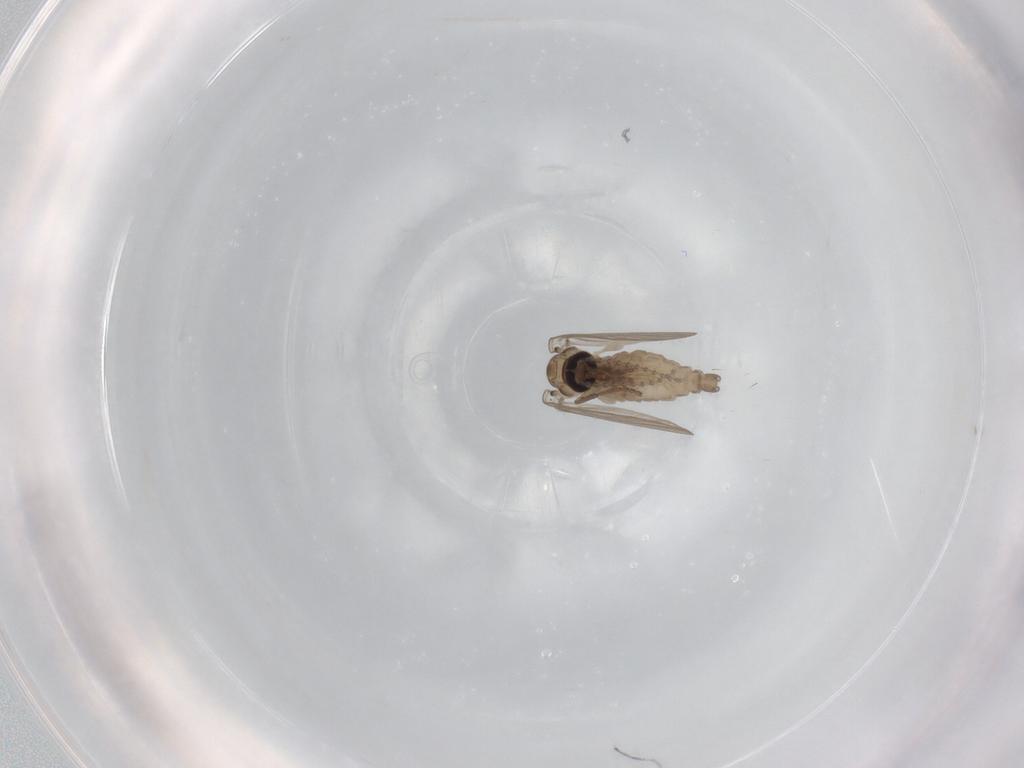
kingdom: Animalia
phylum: Arthropoda
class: Insecta
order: Diptera
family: Psychodidae
